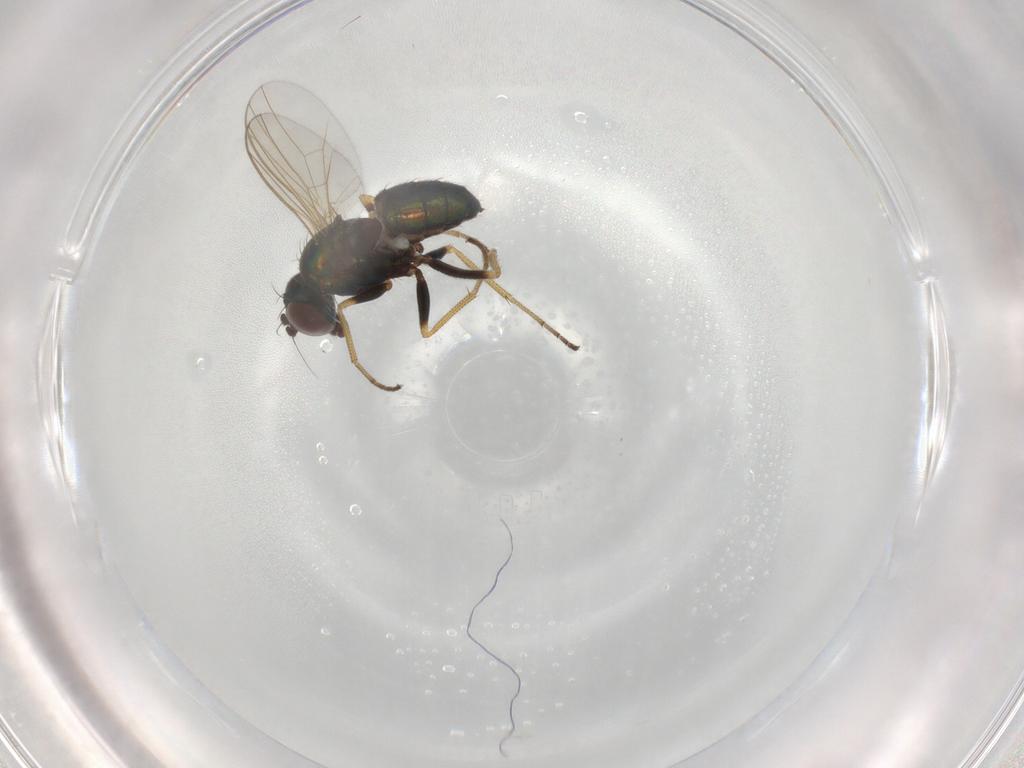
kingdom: Animalia
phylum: Arthropoda
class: Insecta
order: Diptera
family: Dolichopodidae
